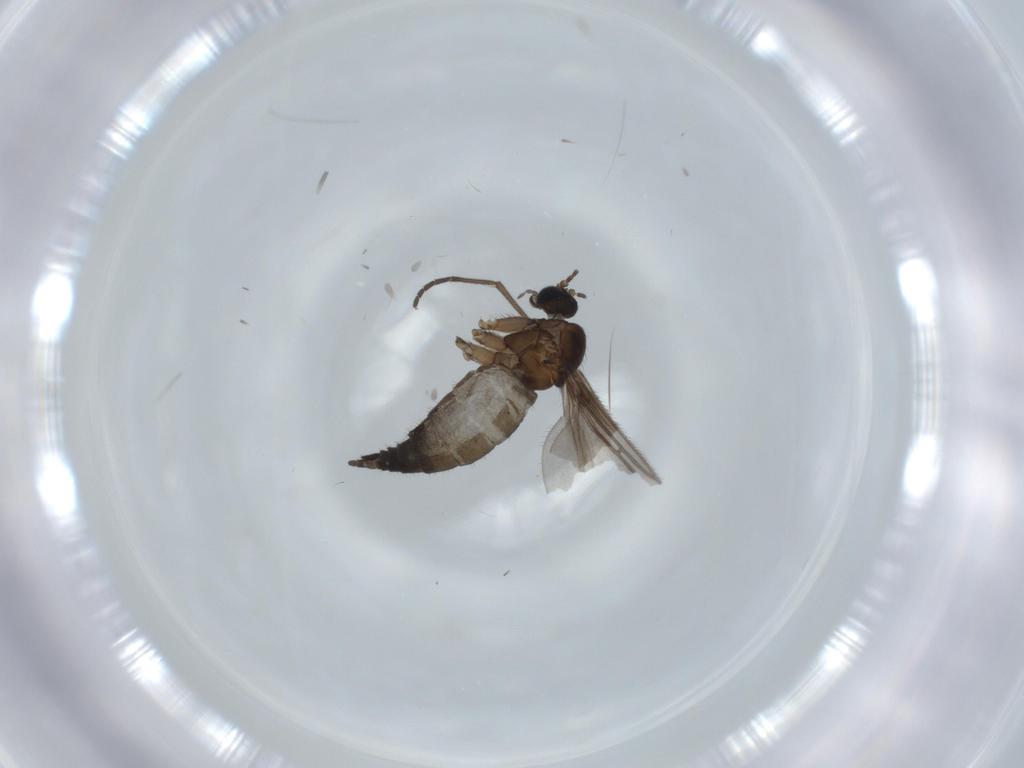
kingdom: Animalia
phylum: Arthropoda
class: Insecta
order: Diptera
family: Sciaridae
